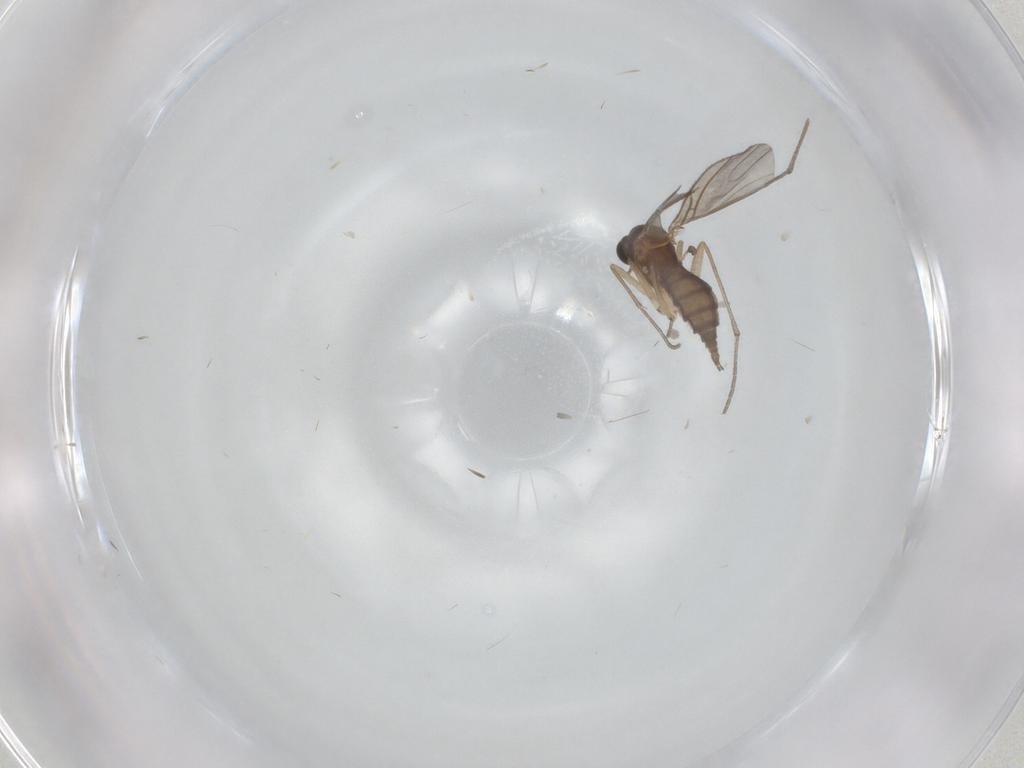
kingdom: Animalia
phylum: Arthropoda
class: Insecta
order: Diptera
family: Sciaridae
